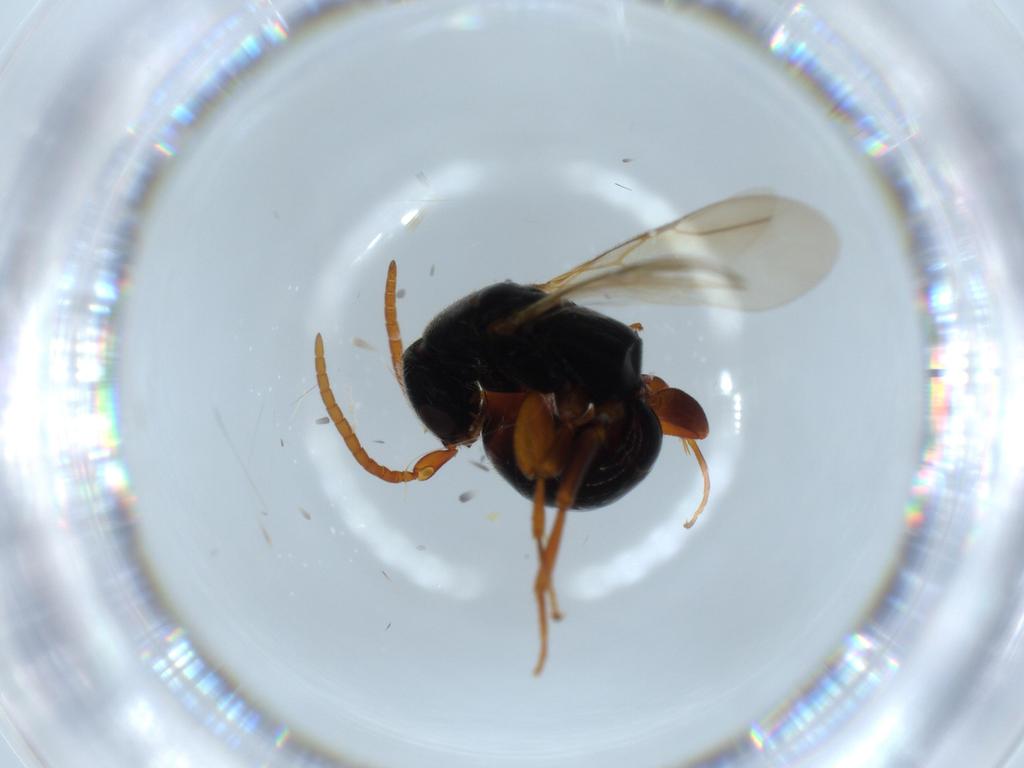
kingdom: Animalia
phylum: Arthropoda
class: Insecta
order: Hymenoptera
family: Bethylidae
